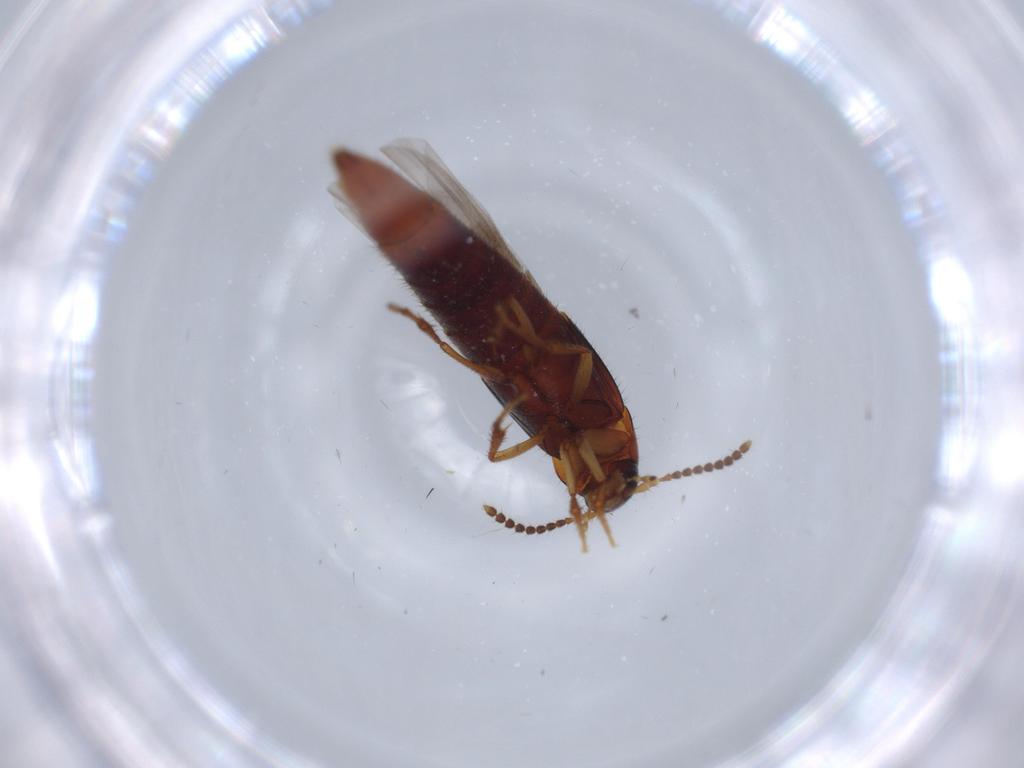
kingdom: Animalia
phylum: Arthropoda
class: Insecta
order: Coleoptera
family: Staphylinidae
